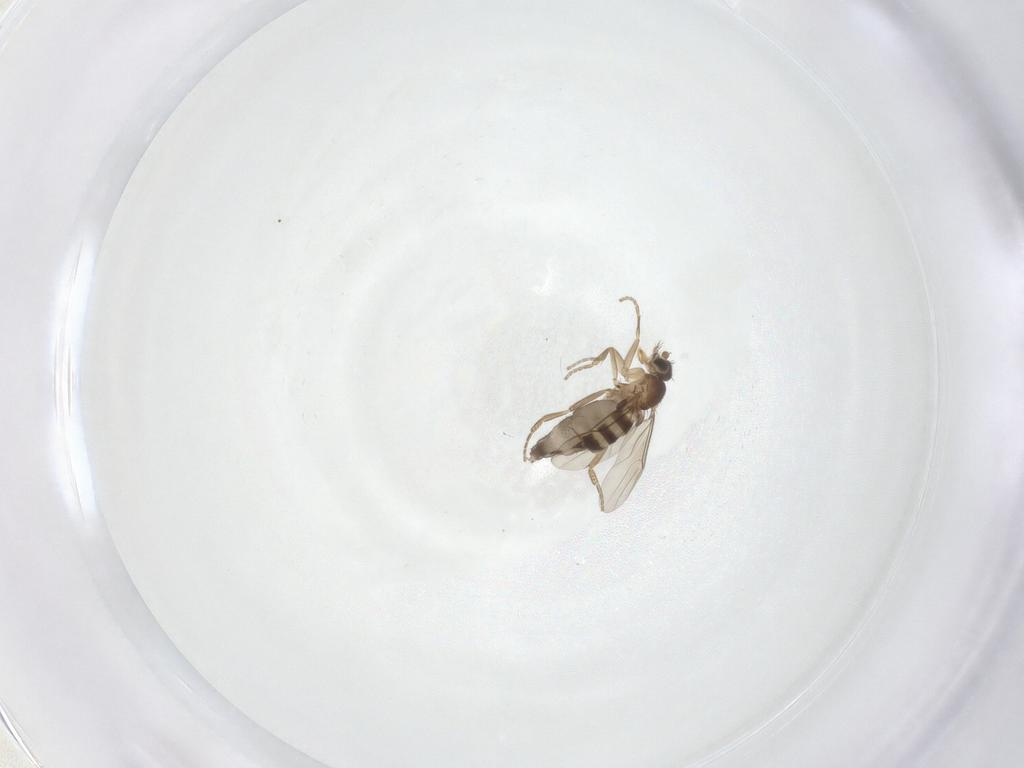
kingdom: Animalia
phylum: Arthropoda
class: Insecta
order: Diptera
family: Phoridae
